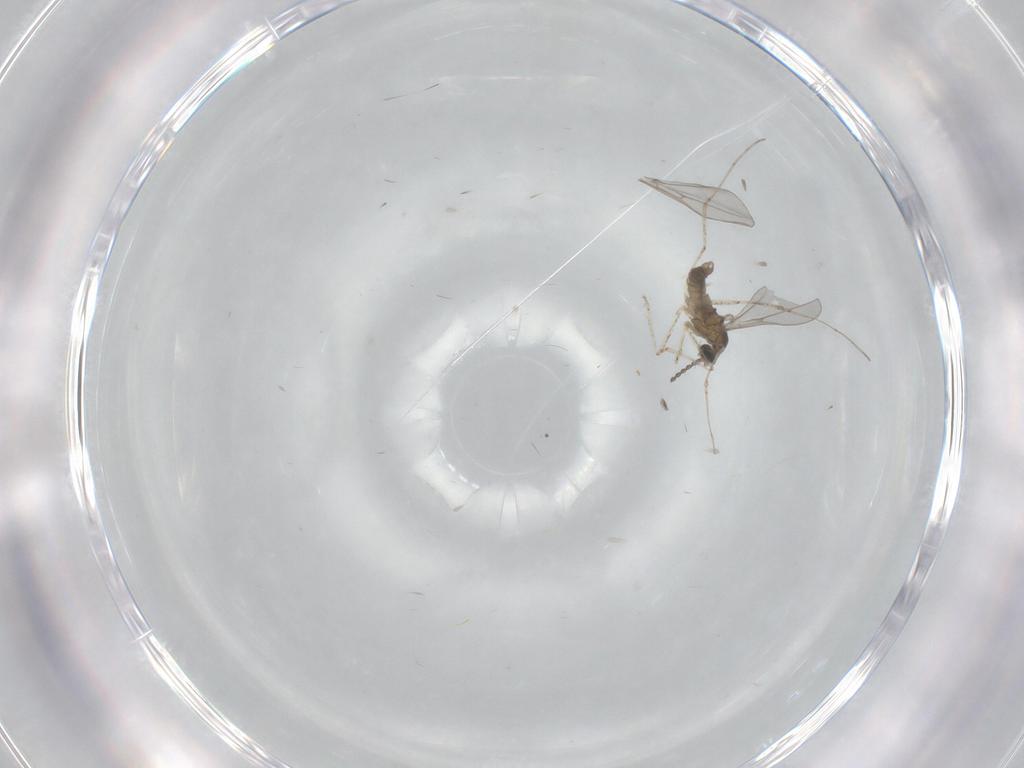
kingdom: Animalia
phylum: Arthropoda
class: Insecta
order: Diptera
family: Cecidomyiidae
